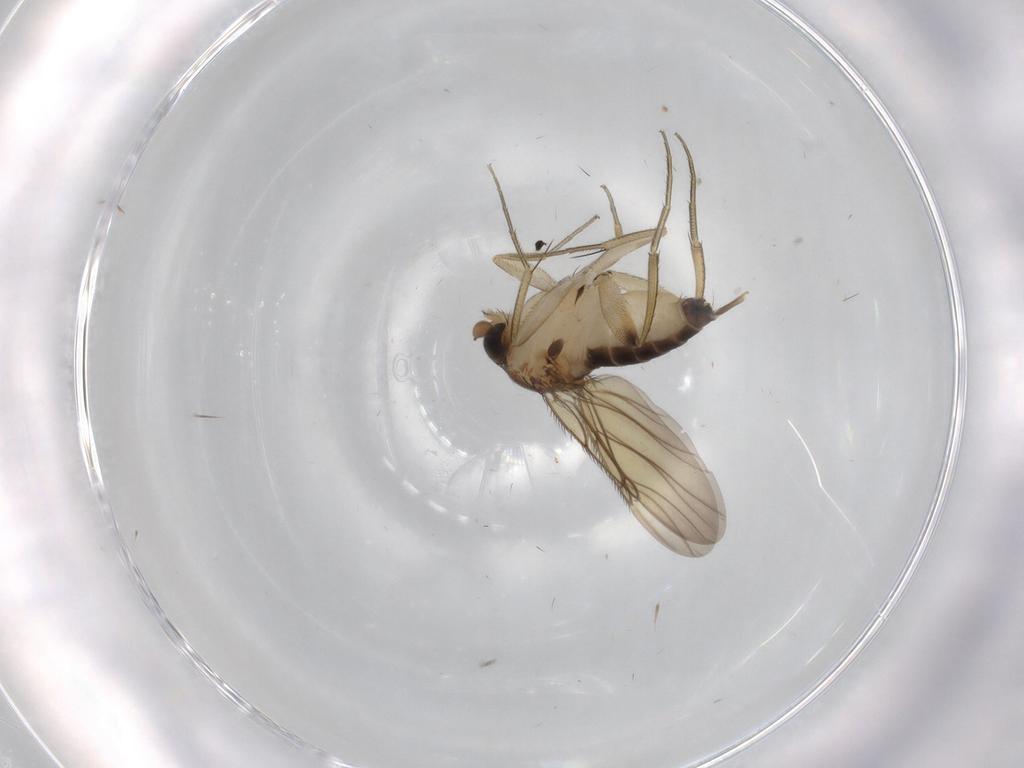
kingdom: Animalia
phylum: Arthropoda
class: Insecta
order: Diptera
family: Phoridae
